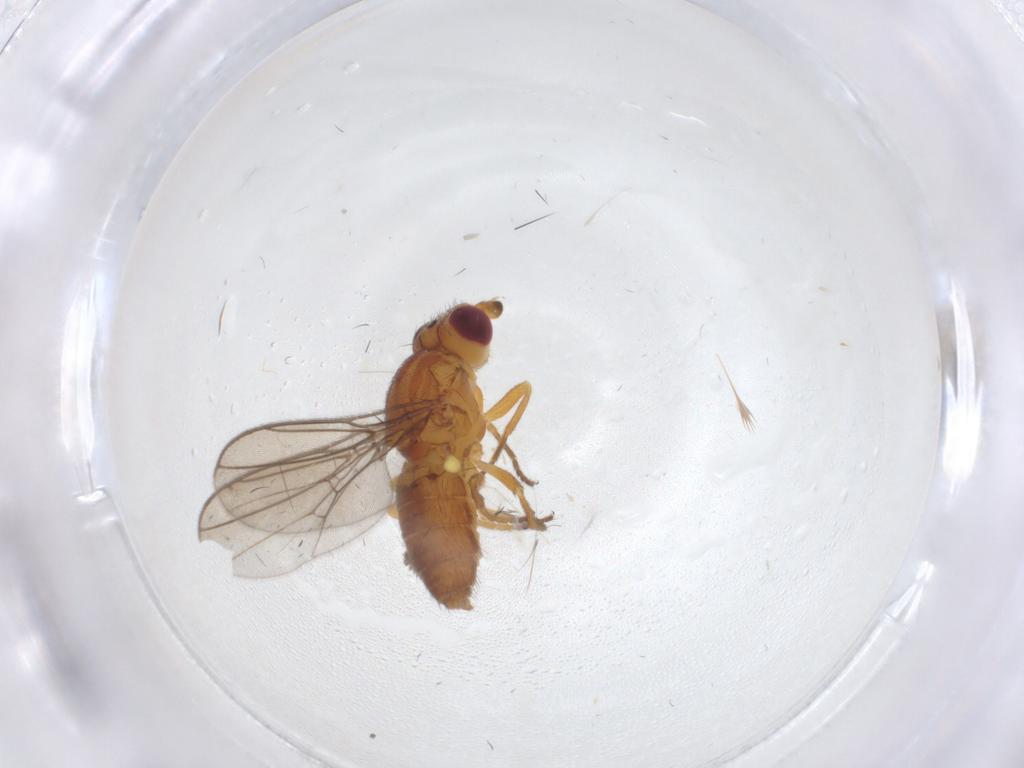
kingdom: Animalia
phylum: Arthropoda
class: Insecta
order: Diptera
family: Chloropidae
